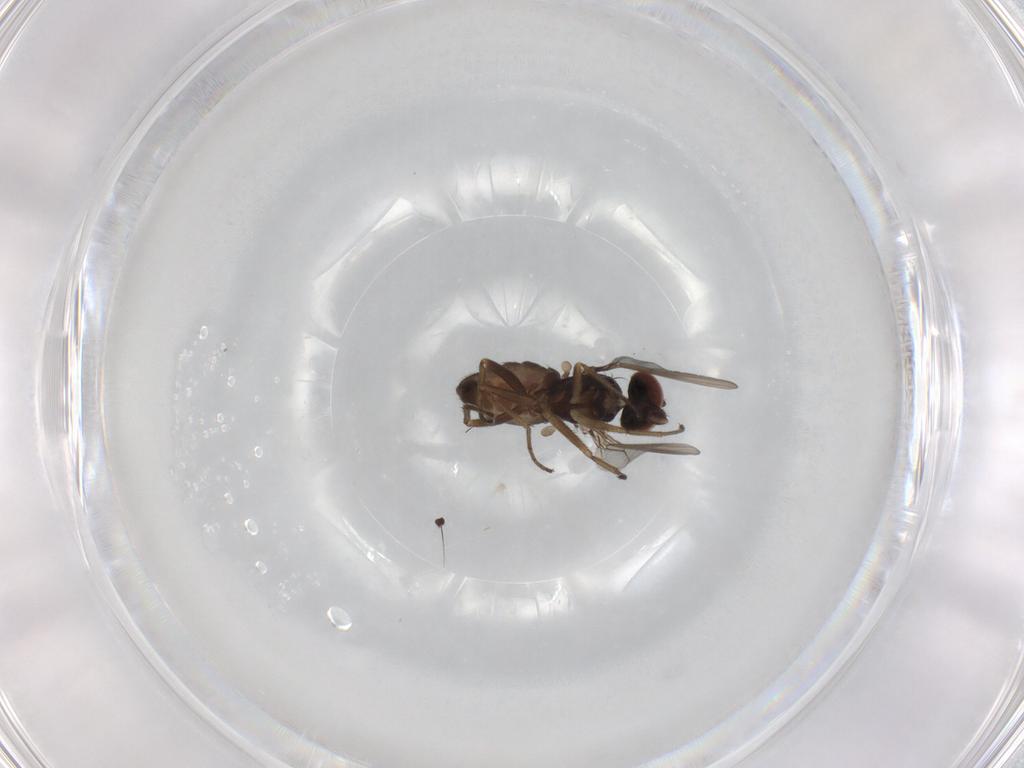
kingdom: Animalia
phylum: Arthropoda
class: Insecta
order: Diptera
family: Dolichopodidae
